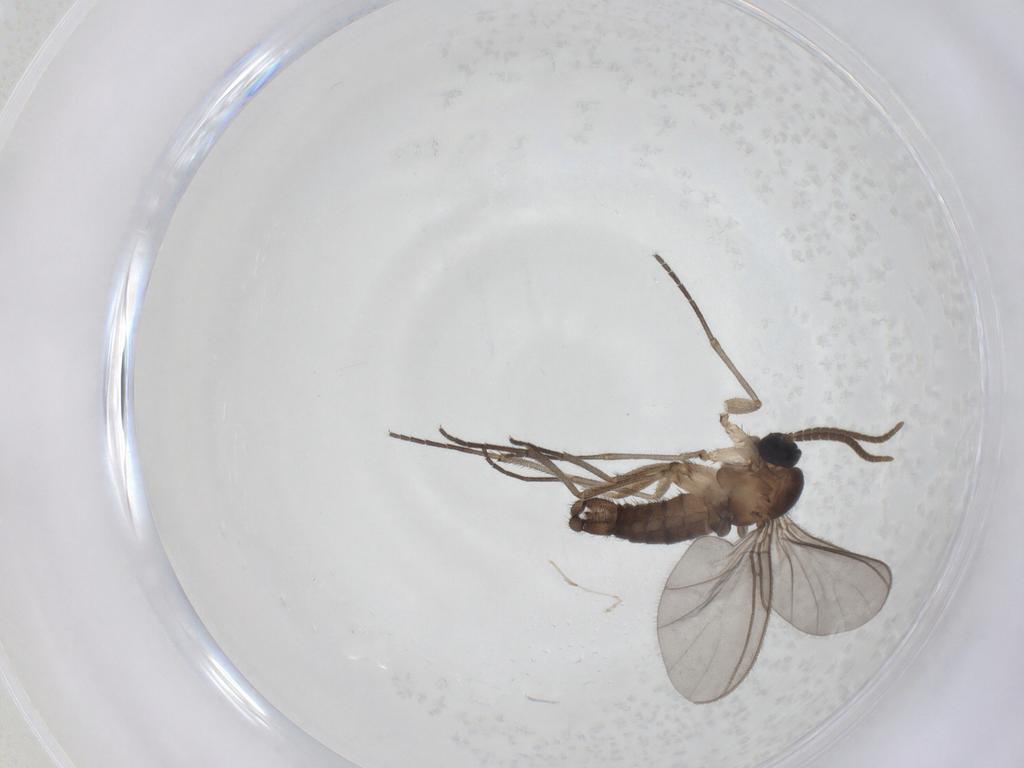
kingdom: Animalia
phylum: Arthropoda
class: Insecta
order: Diptera
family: Cecidomyiidae
